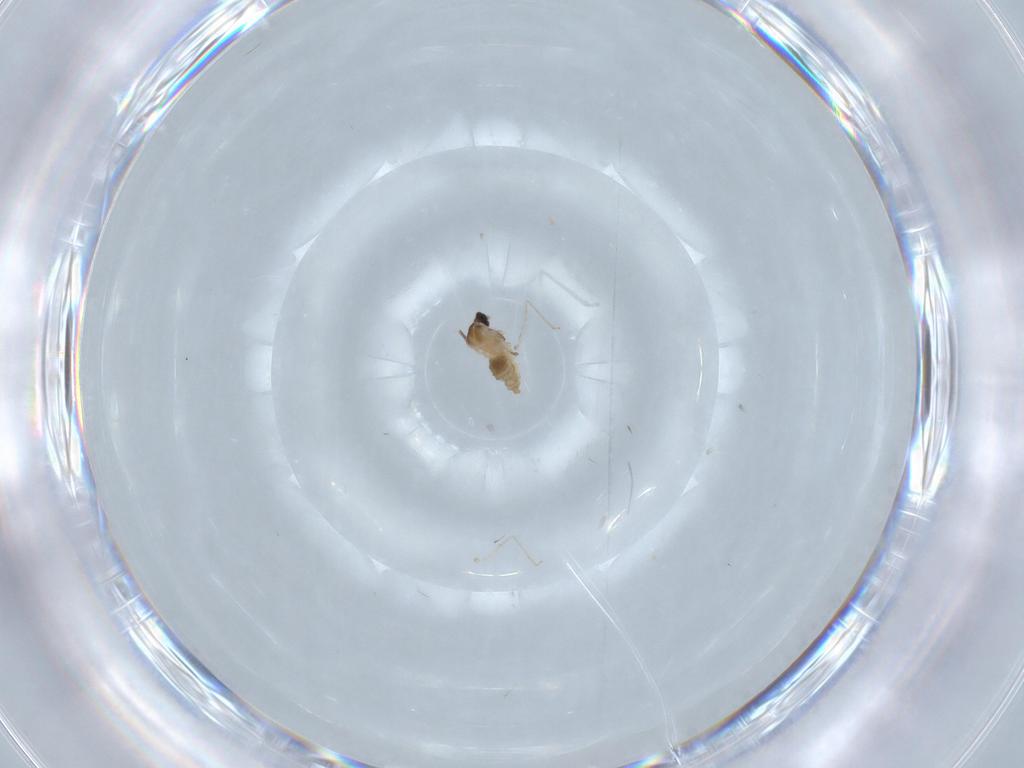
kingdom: Animalia
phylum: Arthropoda
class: Insecta
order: Diptera
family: Cecidomyiidae
